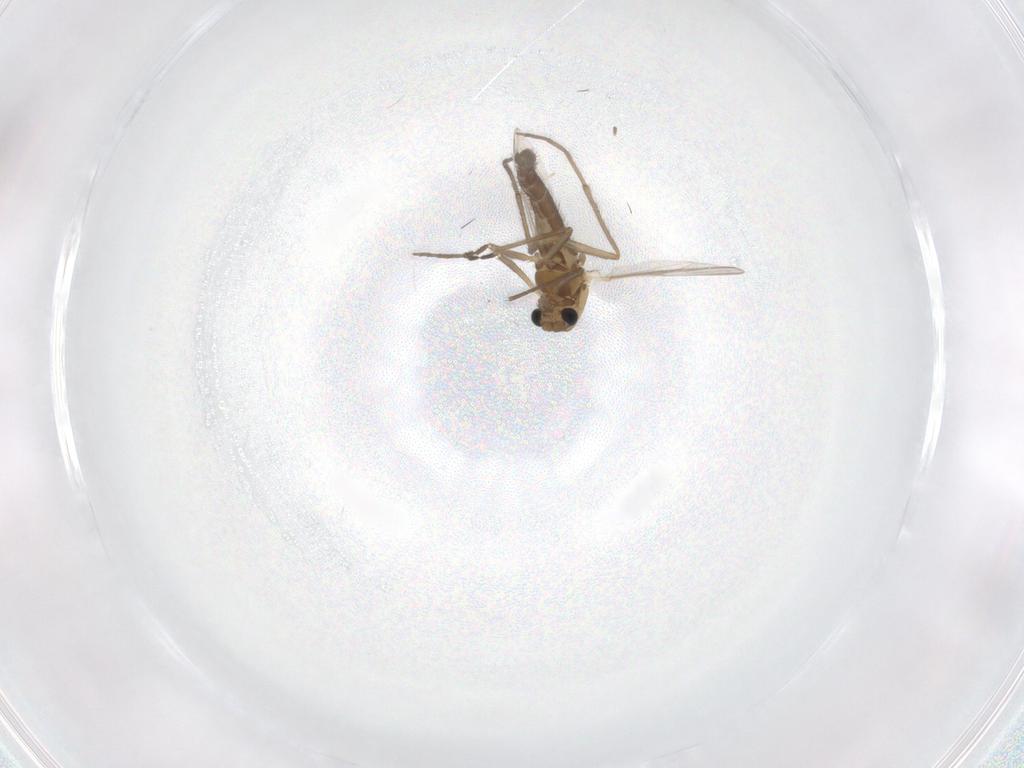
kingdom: Animalia
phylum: Arthropoda
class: Insecta
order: Diptera
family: Chironomidae
